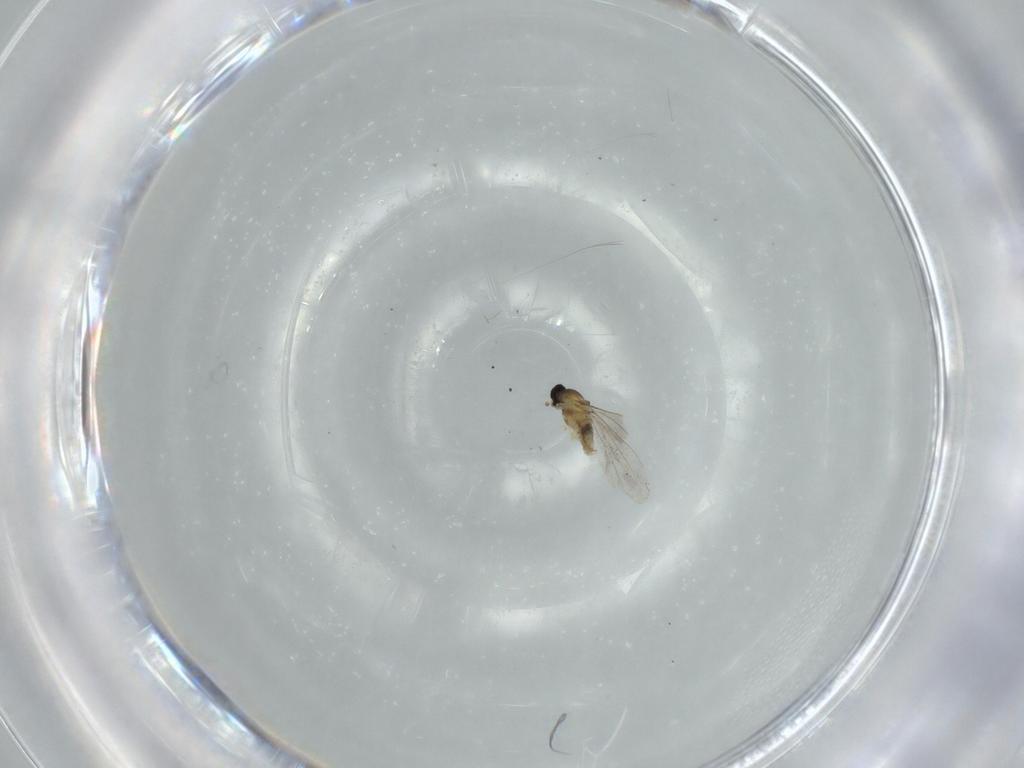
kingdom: Animalia
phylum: Arthropoda
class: Insecta
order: Diptera
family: Cecidomyiidae
